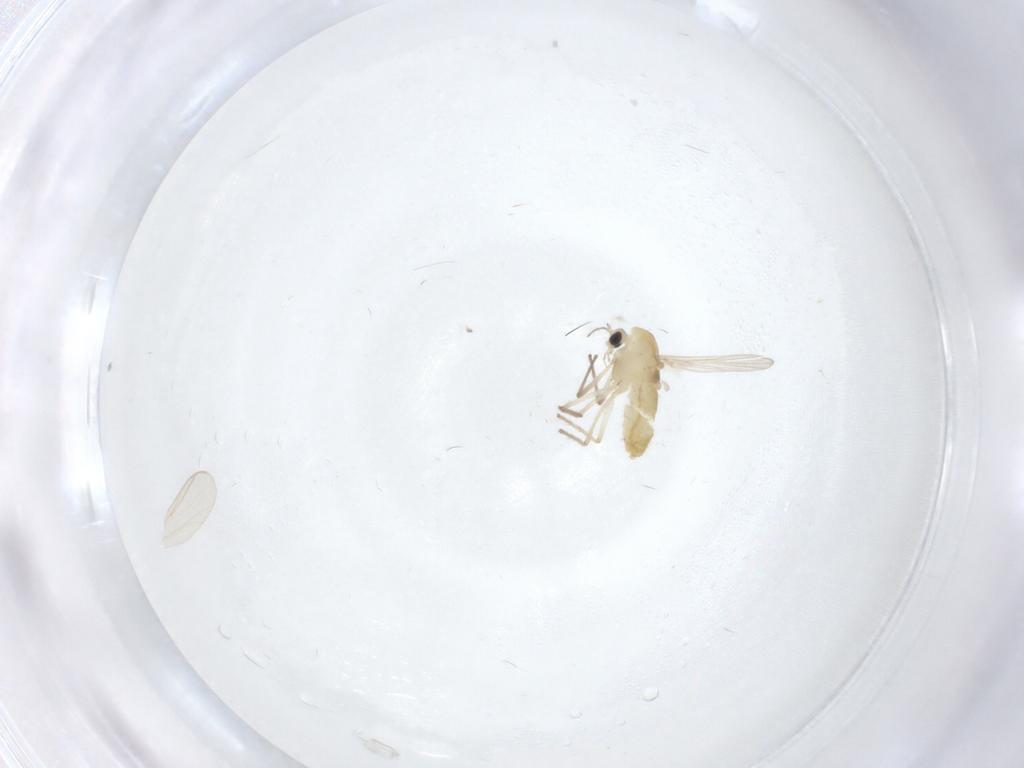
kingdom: Animalia
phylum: Arthropoda
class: Insecta
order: Diptera
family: Chironomidae
